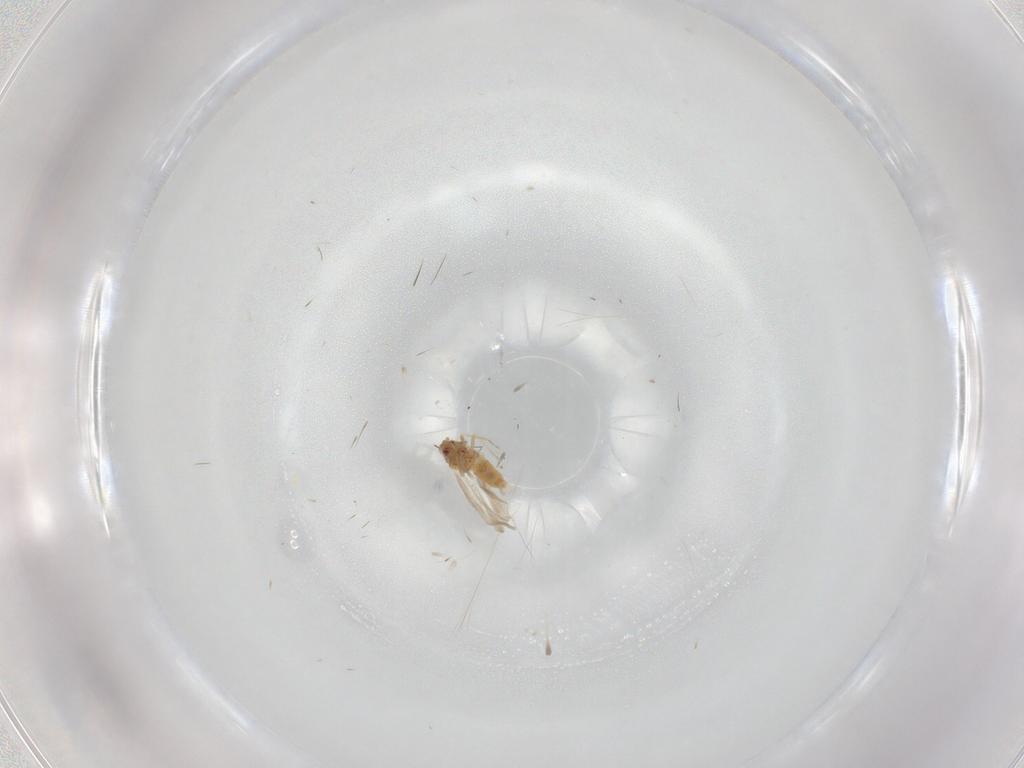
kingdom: Animalia
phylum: Arthropoda
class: Insecta
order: Hemiptera
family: Aleyrodidae
